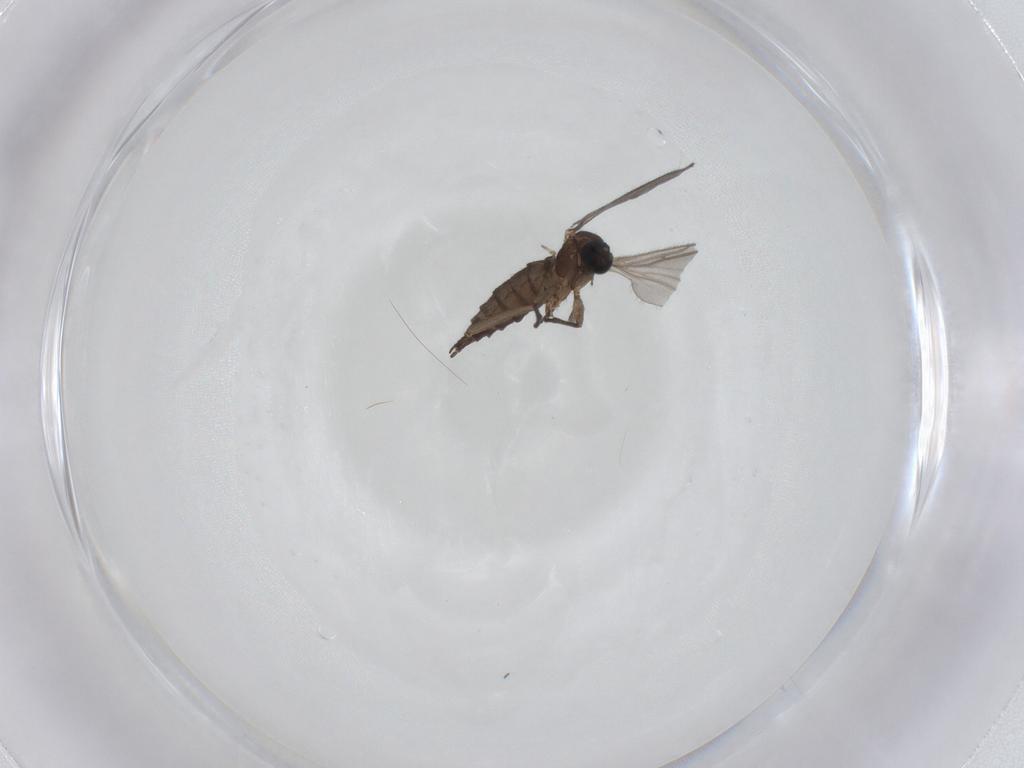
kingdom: Animalia
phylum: Arthropoda
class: Insecta
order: Diptera
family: Sciaridae
